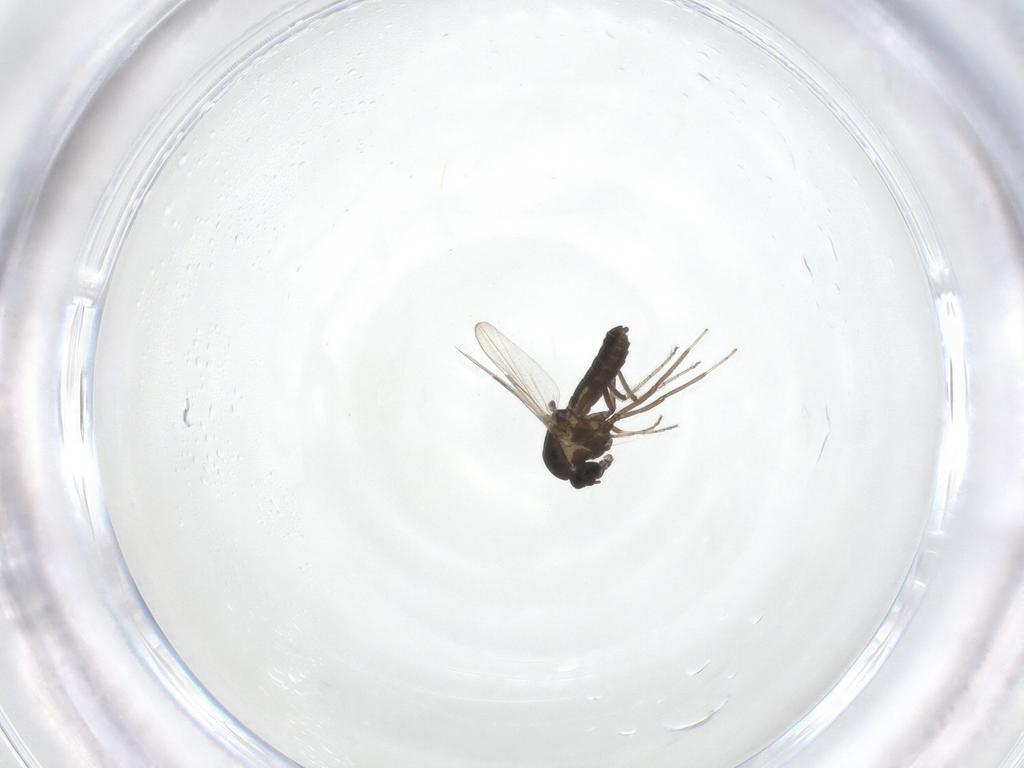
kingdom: Animalia
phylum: Arthropoda
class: Insecta
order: Diptera
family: Ceratopogonidae
